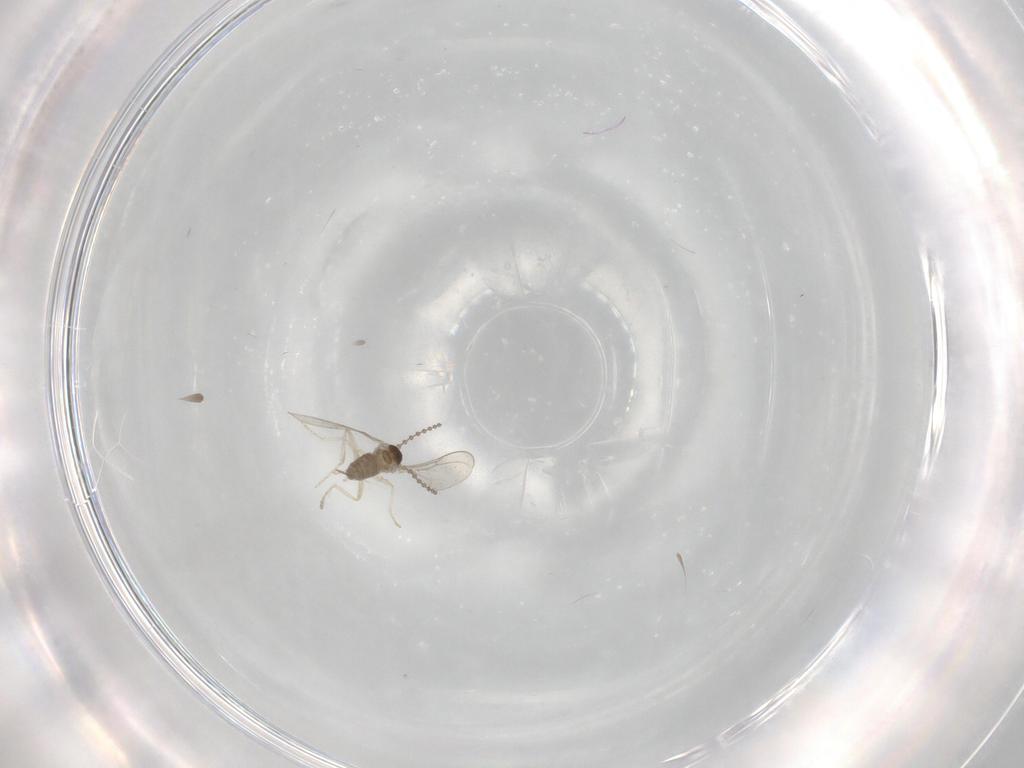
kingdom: Animalia
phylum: Arthropoda
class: Insecta
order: Diptera
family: Cecidomyiidae
